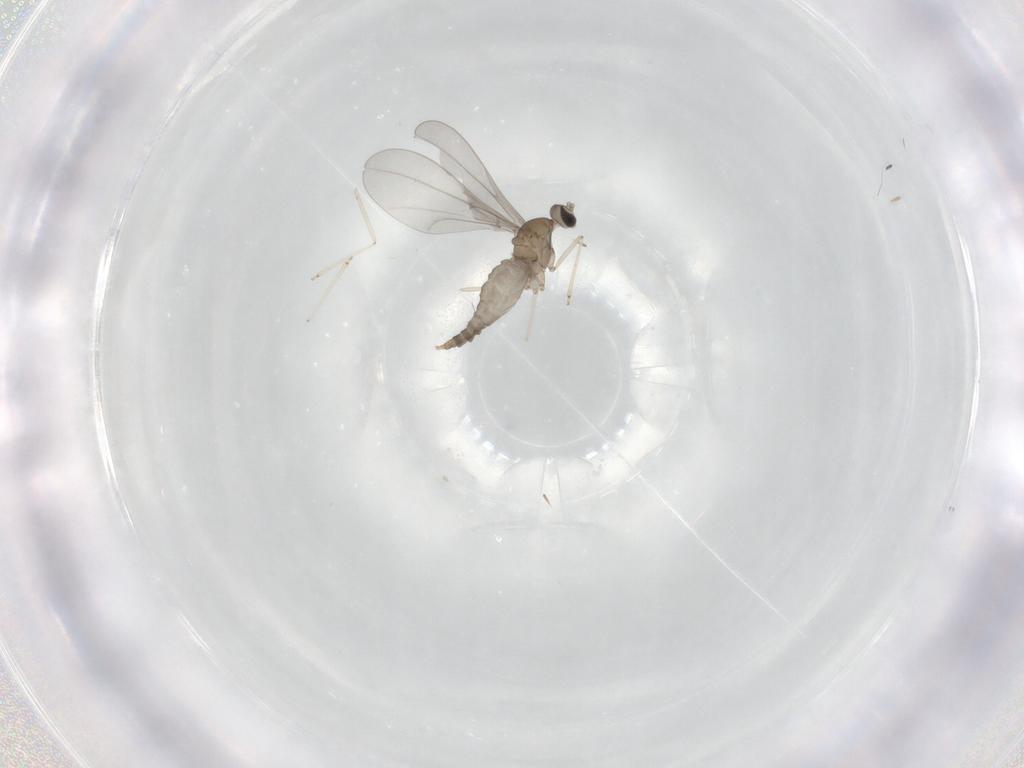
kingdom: Animalia
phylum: Arthropoda
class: Insecta
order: Diptera
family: Cecidomyiidae
